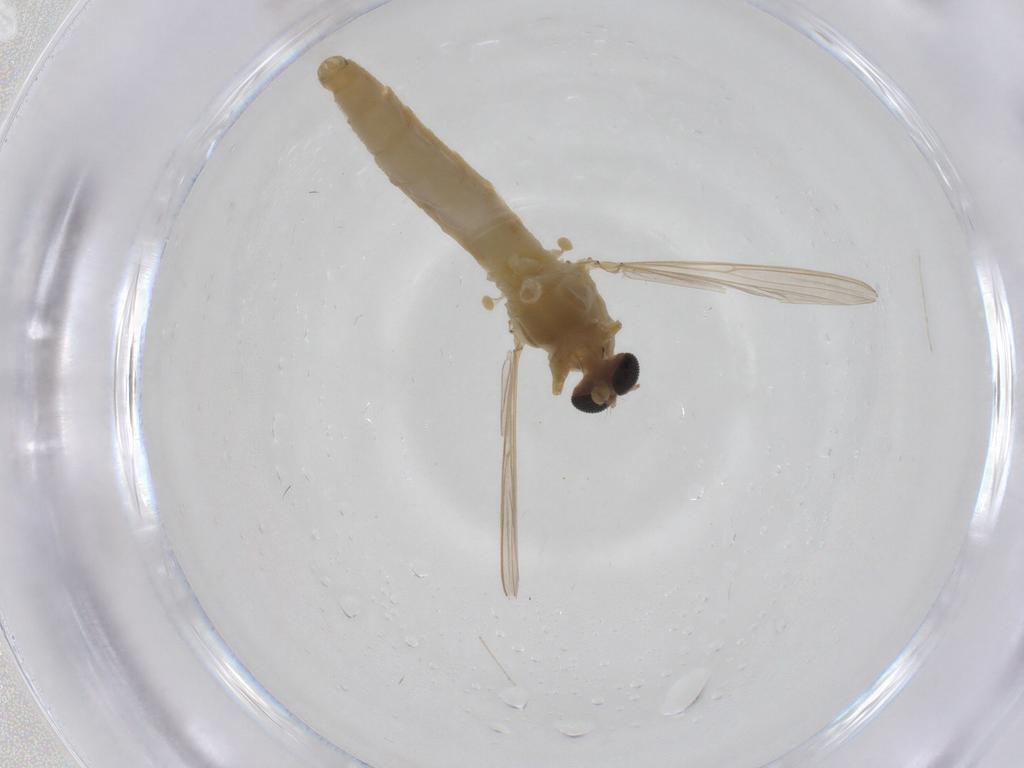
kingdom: Animalia
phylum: Arthropoda
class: Insecta
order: Diptera
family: Chironomidae
